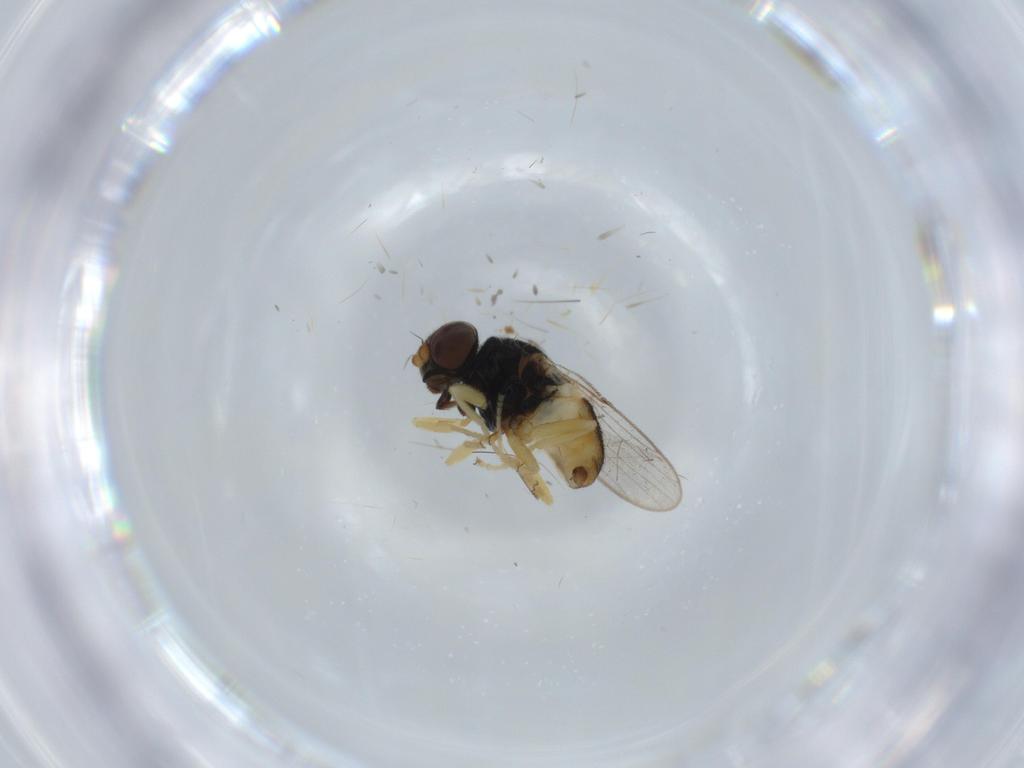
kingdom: Animalia
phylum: Arthropoda
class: Insecta
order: Diptera
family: Chloropidae
